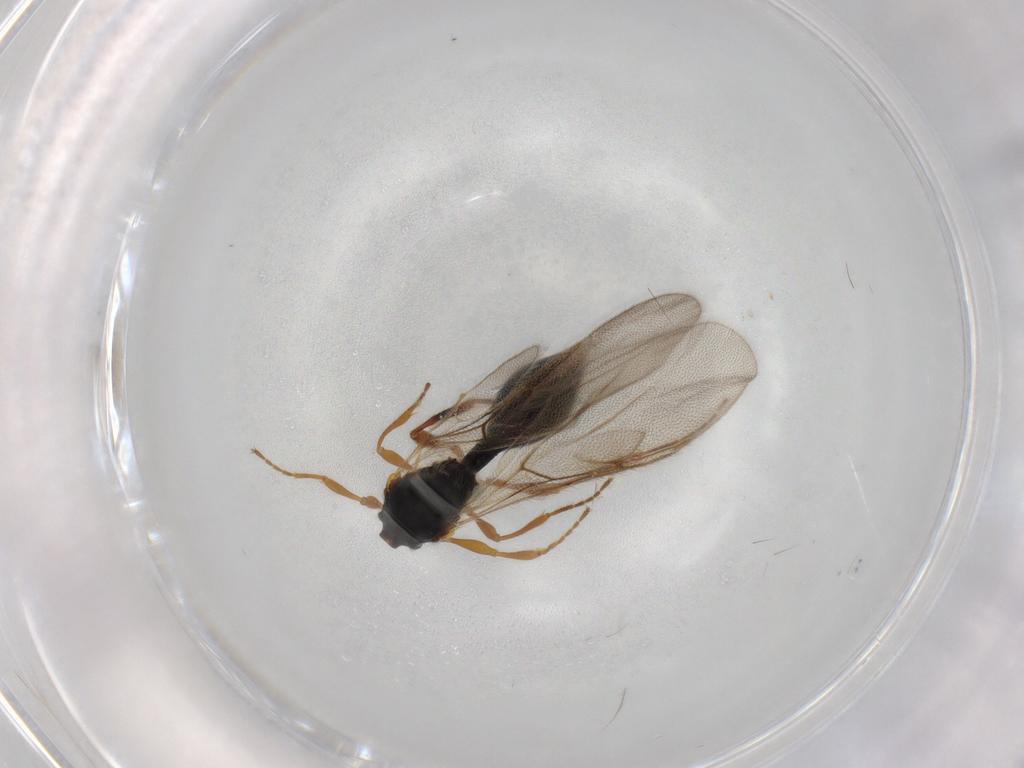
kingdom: Animalia
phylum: Arthropoda
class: Insecta
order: Hymenoptera
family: Diapriidae
